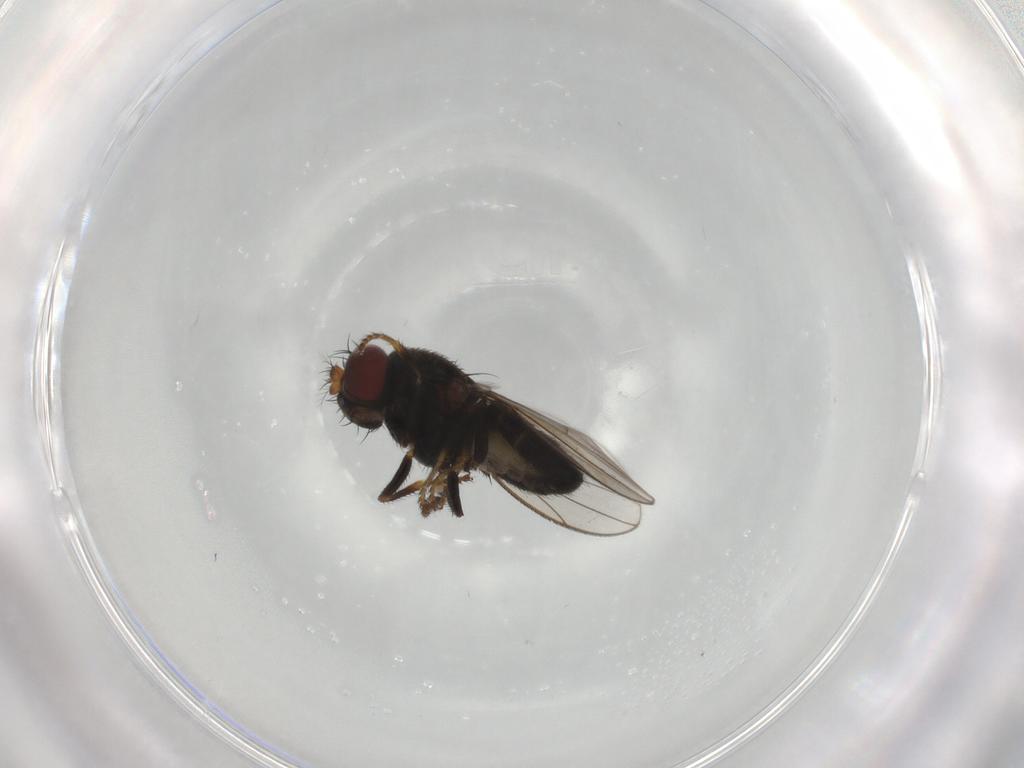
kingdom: Animalia
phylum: Arthropoda
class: Insecta
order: Diptera
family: Chironomidae
